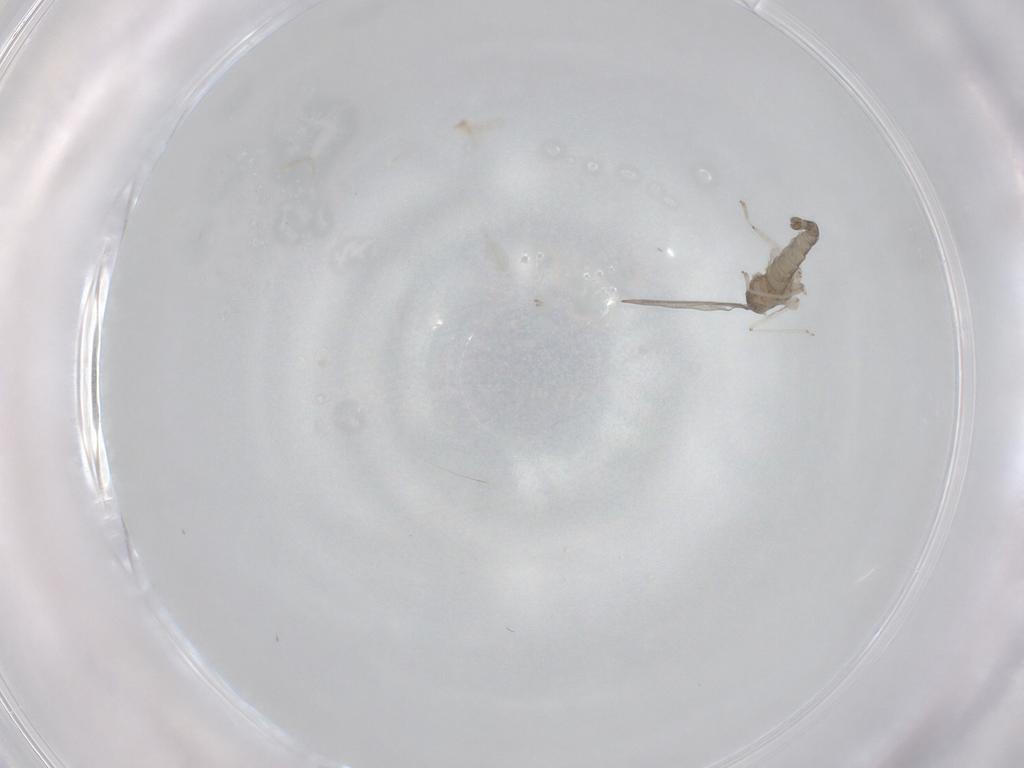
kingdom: Animalia
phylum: Arthropoda
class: Insecta
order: Diptera
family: Cecidomyiidae
